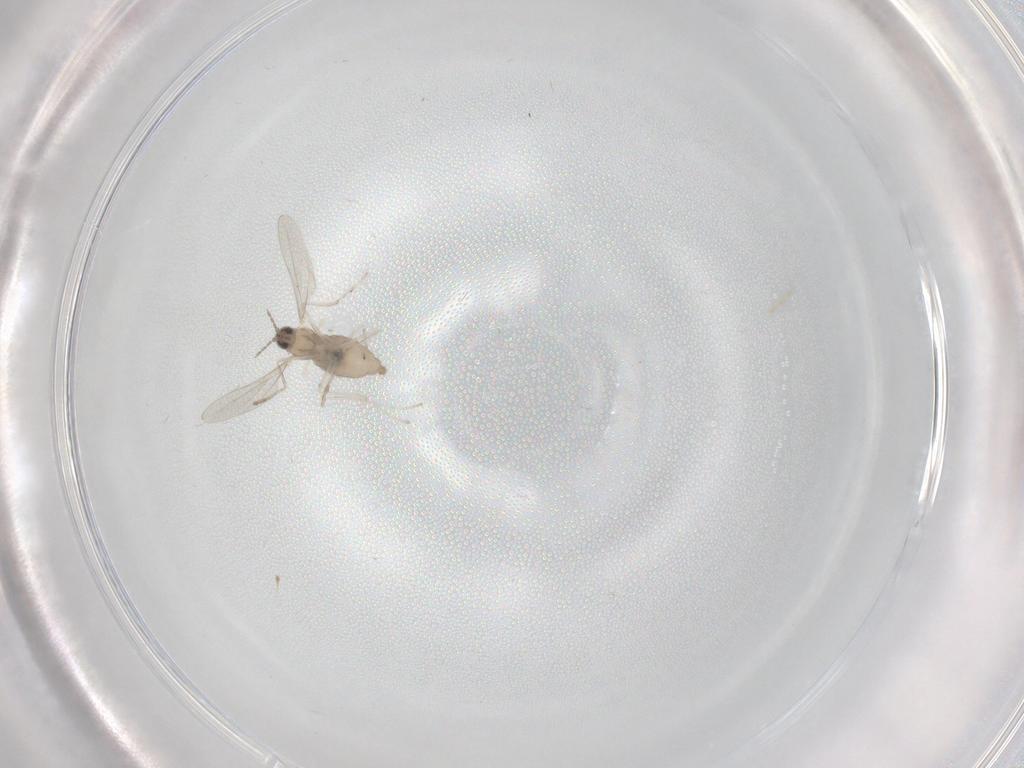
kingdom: Animalia
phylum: Arthropoda
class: Insecta
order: Diptera
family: Cecidomyiidae
